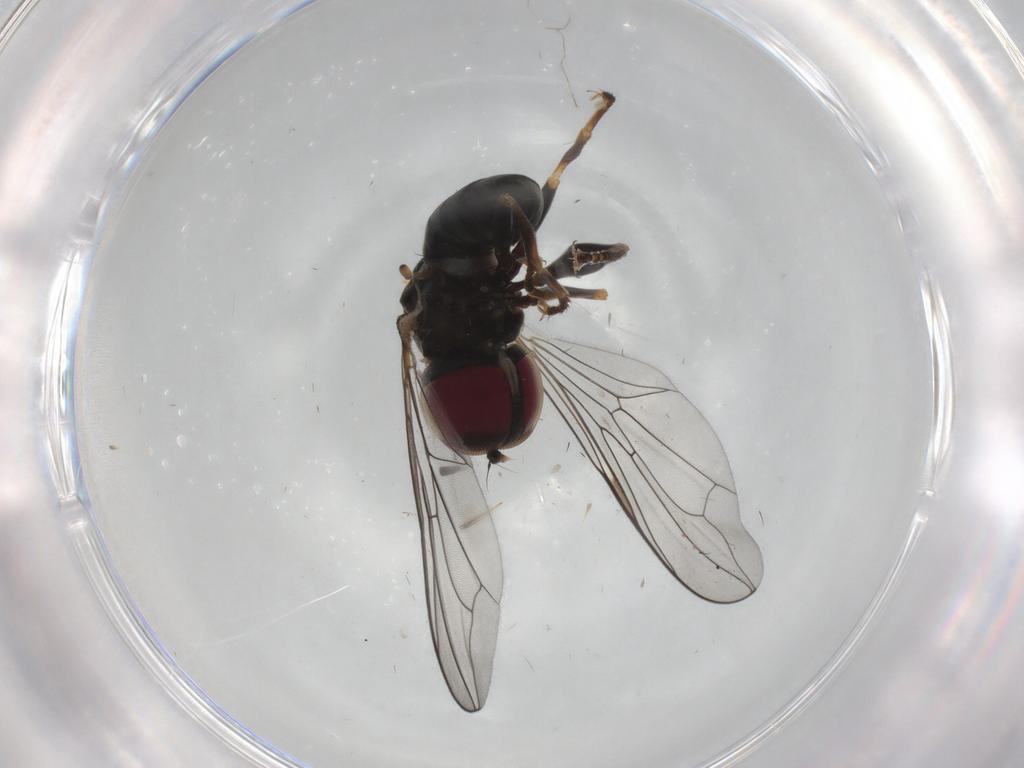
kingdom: Animalia
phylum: Arthropoda
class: Insecta
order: Diptera
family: Pipunculidae
